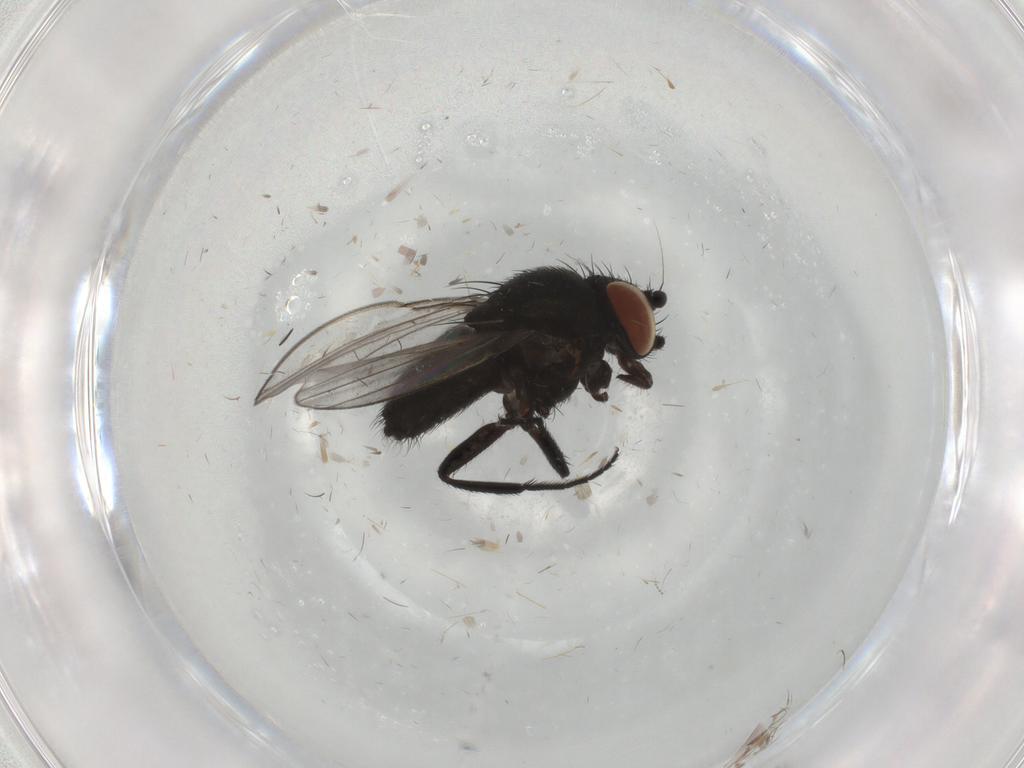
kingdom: Animalia
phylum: Arthropoda
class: Insecta
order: Diptera
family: Milichiidae
